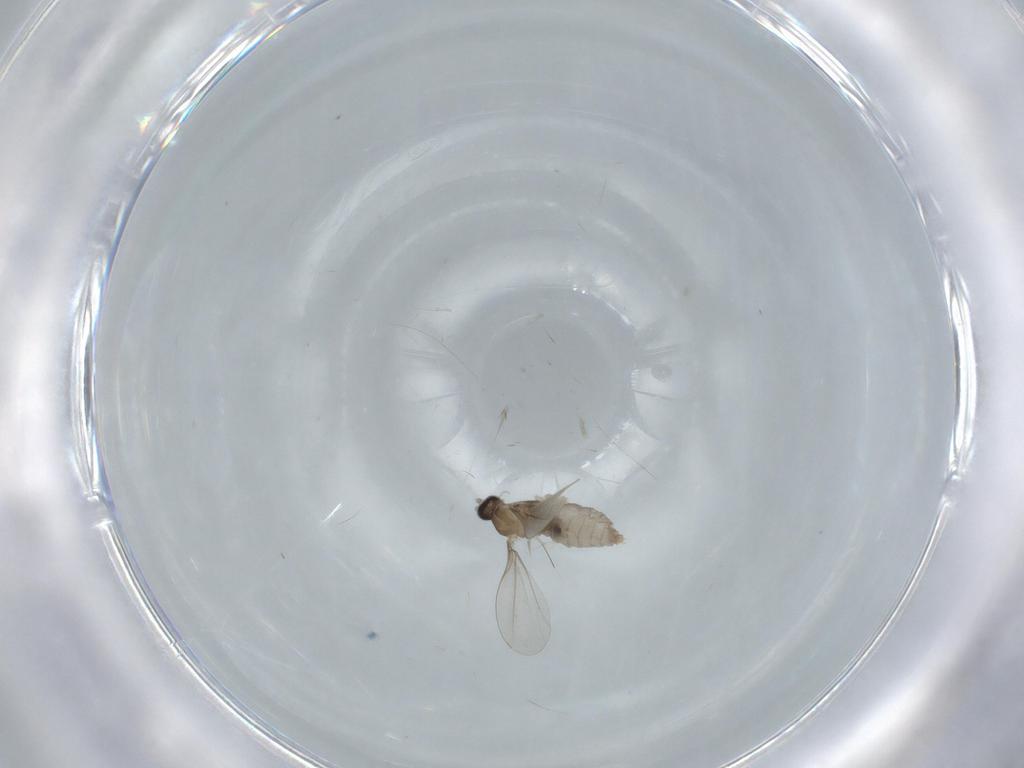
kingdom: Animalia
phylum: Arthropoda
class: Insecta
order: Diptera
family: Cecidomyiidae
